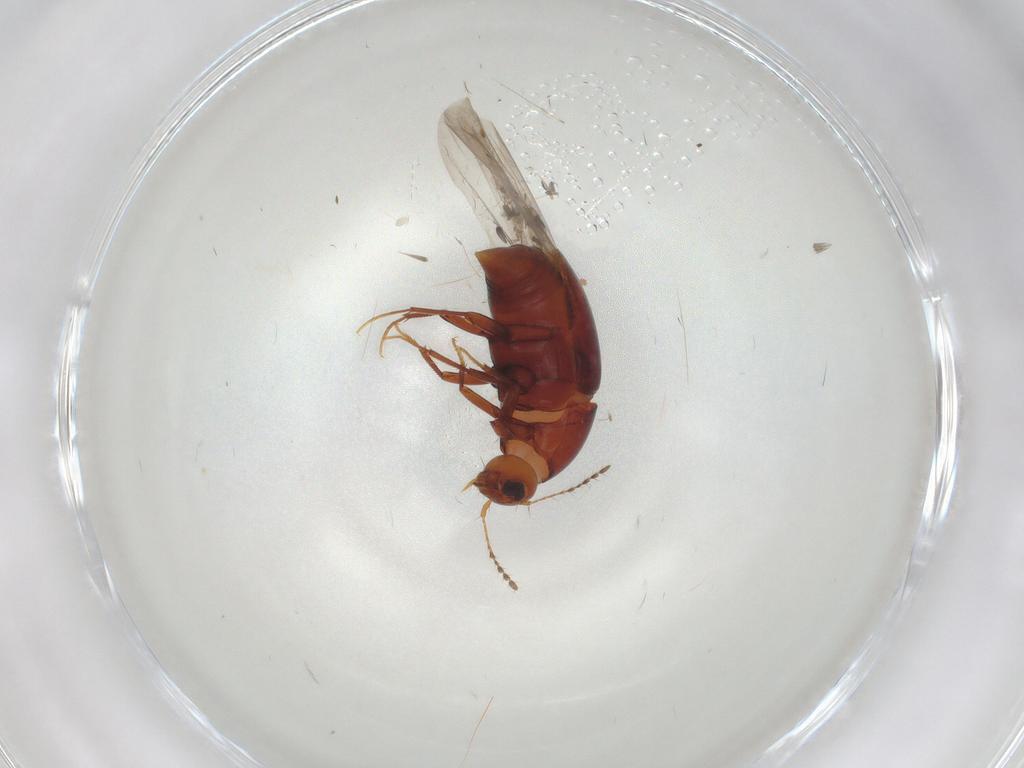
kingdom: Animalia
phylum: Arthropoda
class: Insecta
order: Coleoptera
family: Staphylinidae
